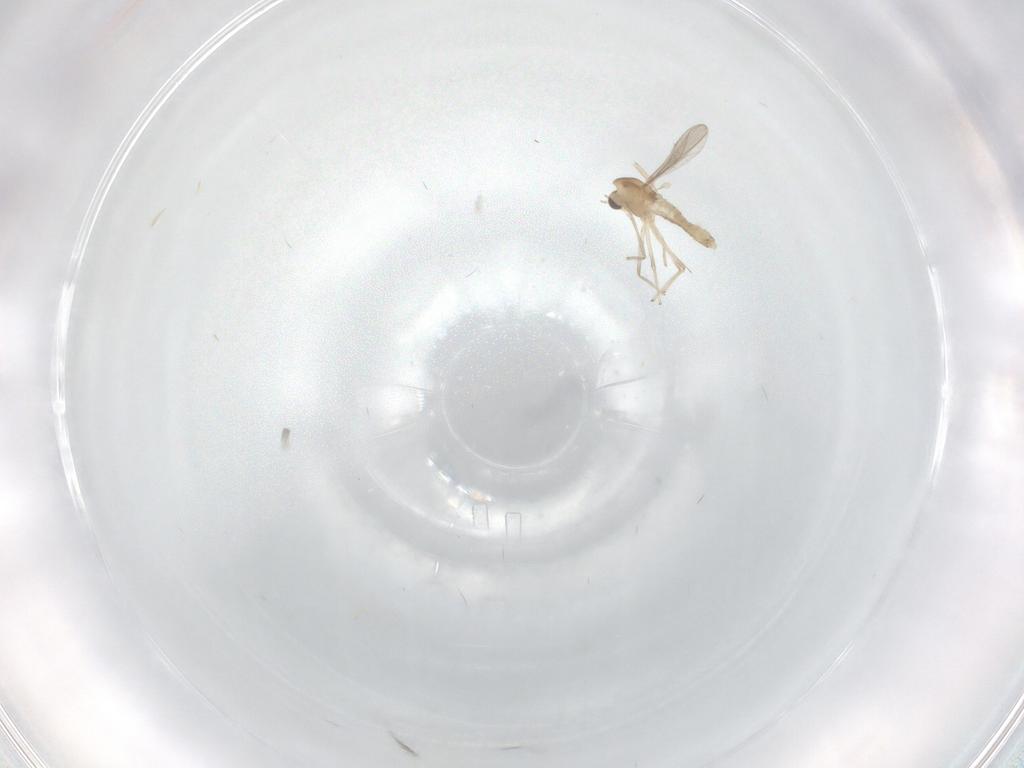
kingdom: Animalia
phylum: Arthropoda
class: Insecta
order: Diptera
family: Chironomidae
